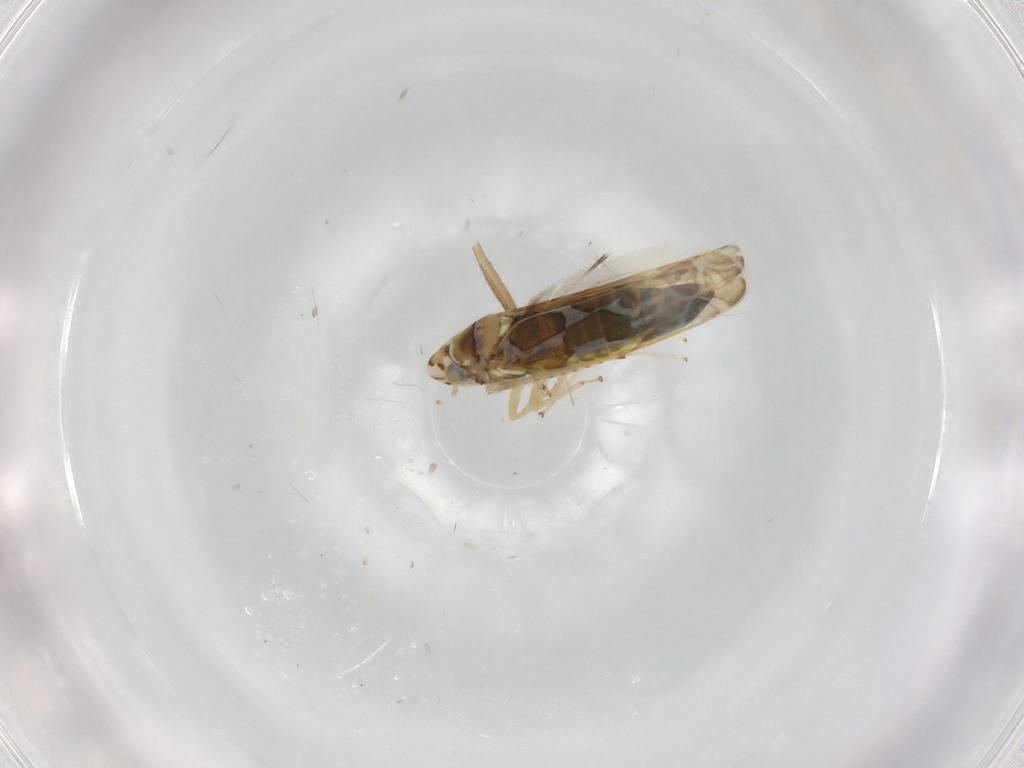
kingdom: Animalia
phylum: Arthropoda
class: Insecta
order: Hemiptera
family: Cicadellidae
